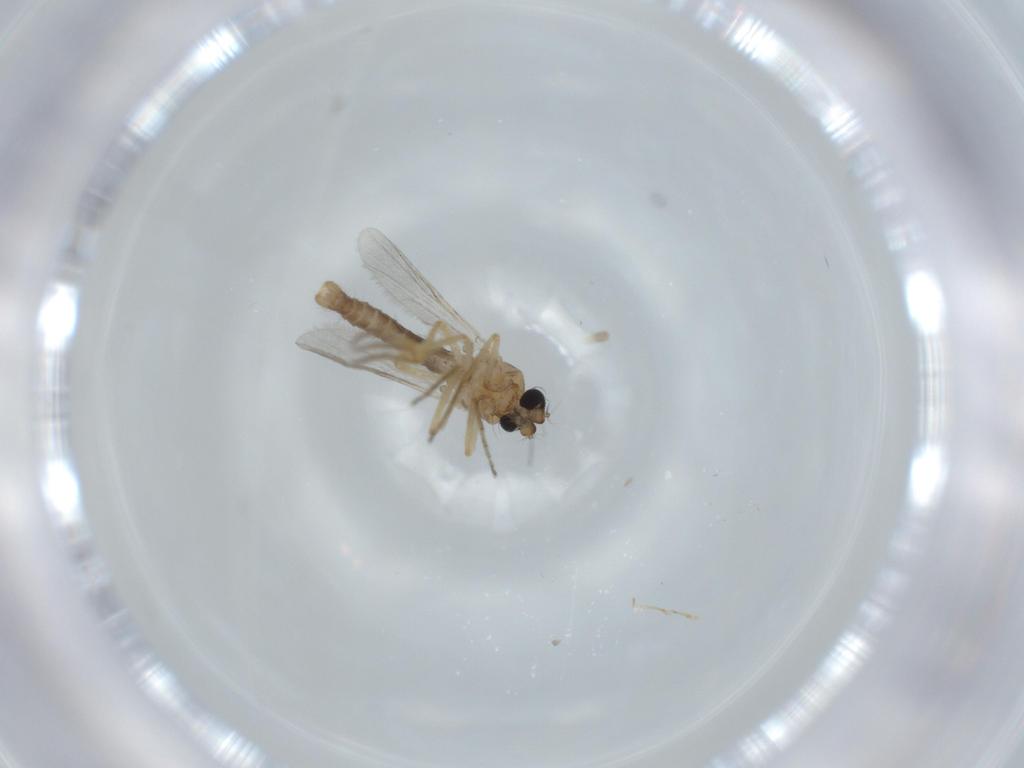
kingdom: Animalia
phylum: Arthropoda
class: Insecta
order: Diptera
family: Ceratopogonidae
